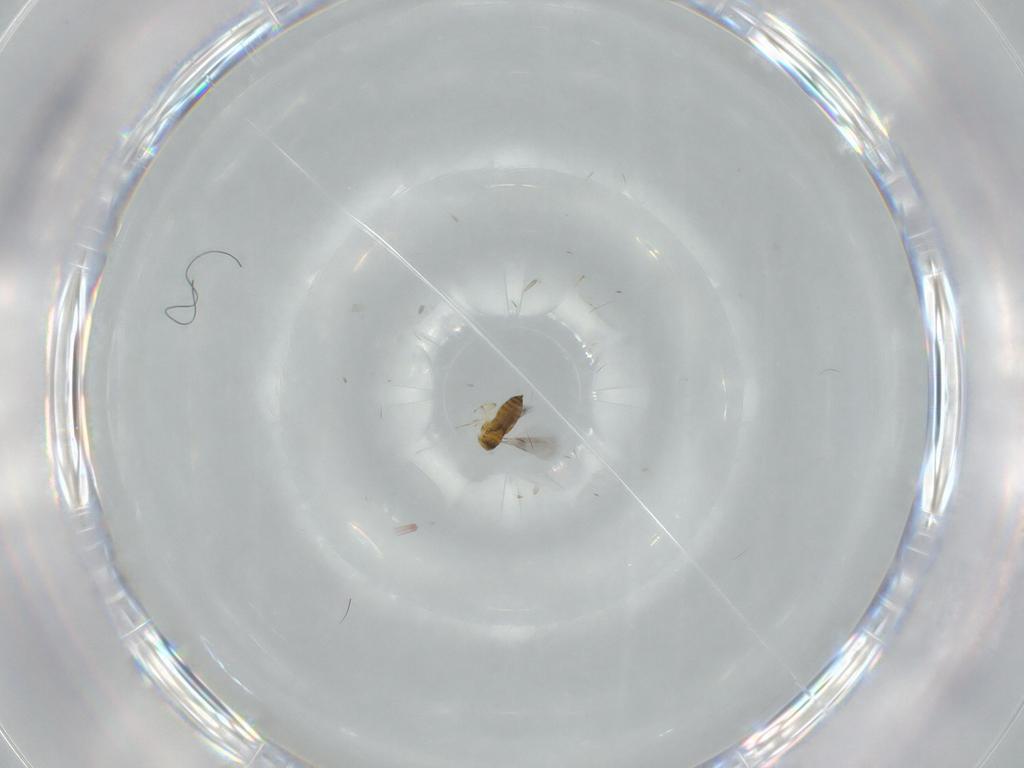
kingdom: Animalia
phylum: Arthropoda
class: Insecta
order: Hymenoptera
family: Signiphoridae
